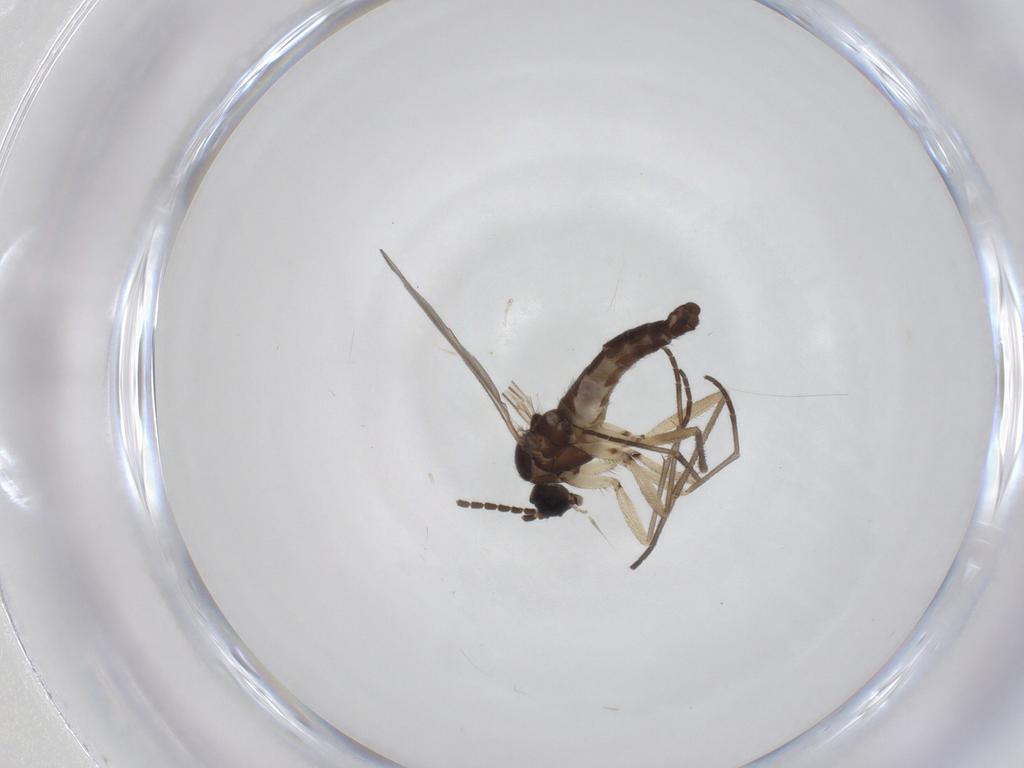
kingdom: Animalia
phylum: Arthropoda
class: Insecta
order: Diptera
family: Sciaridae
